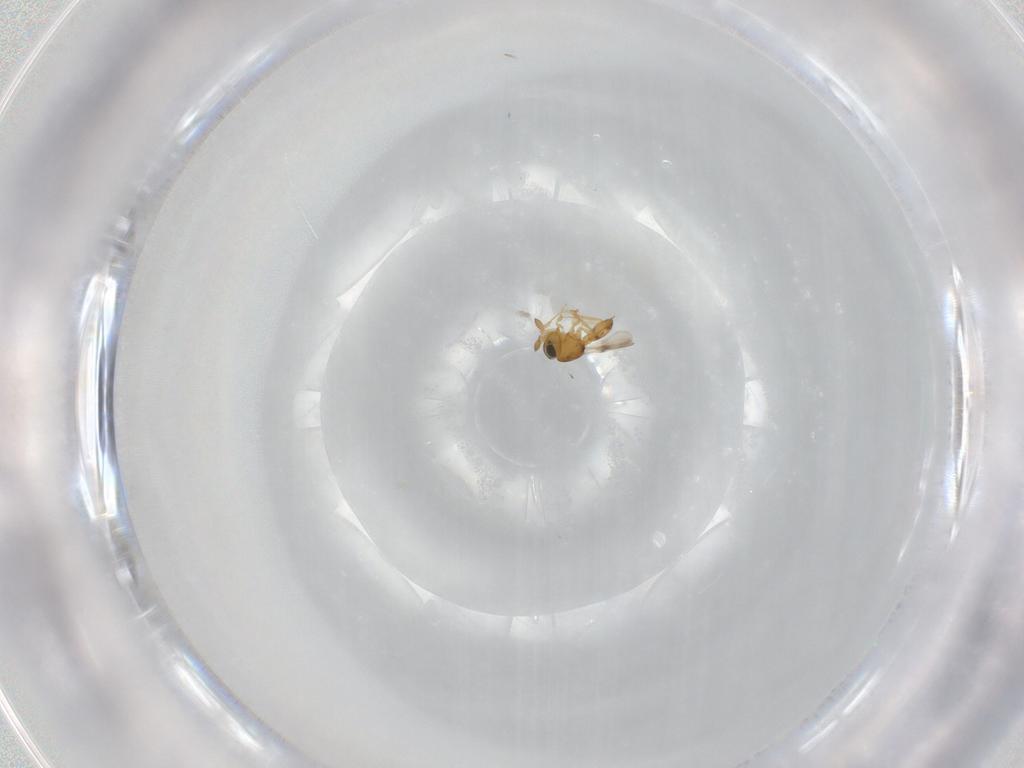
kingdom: Animalia
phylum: Arthropoda
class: Insecta
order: Hymenoptera
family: Scelionidae
